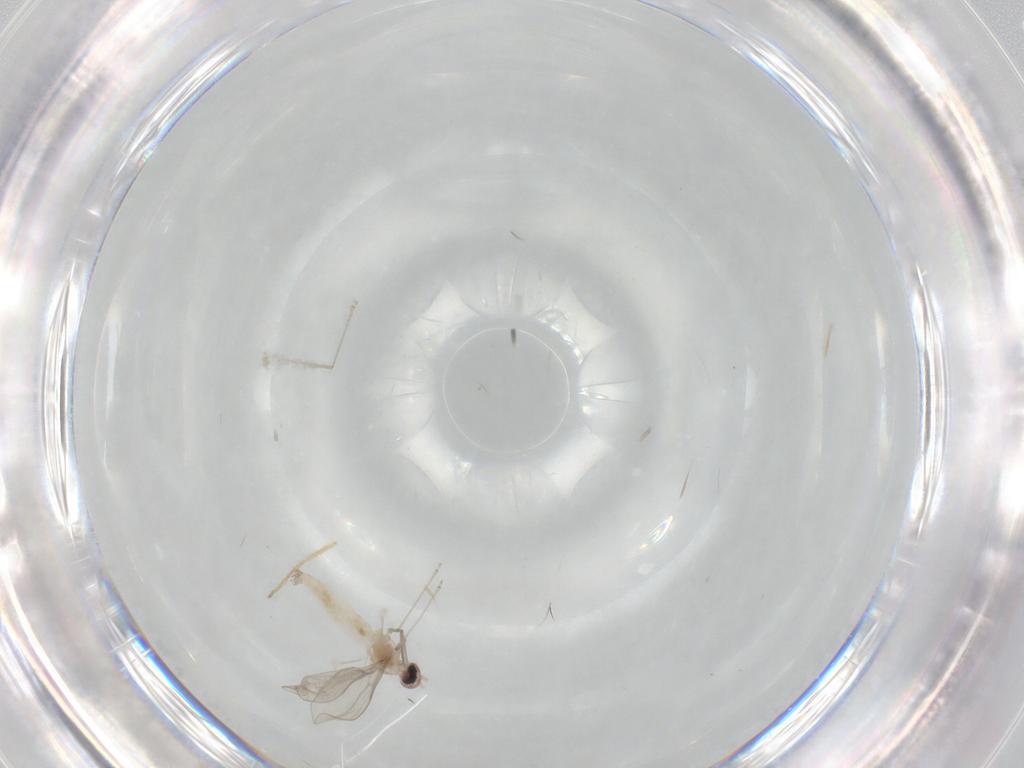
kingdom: Animalia
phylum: Arthropoda
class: Insecta
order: Diptera
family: Chironomidae
